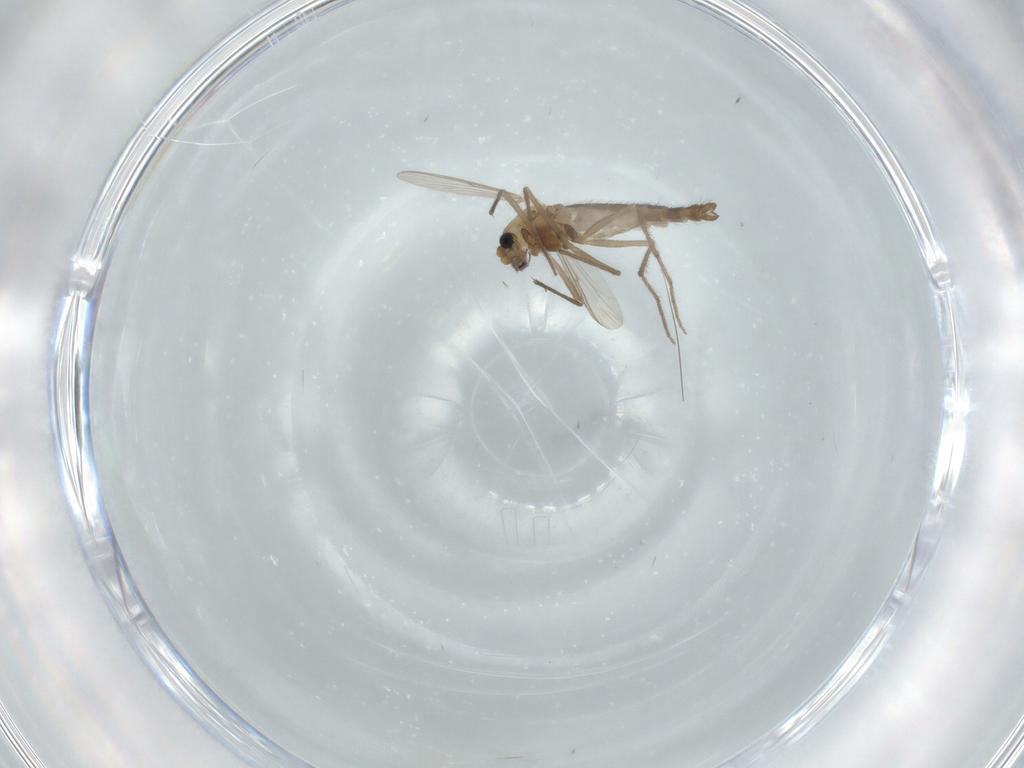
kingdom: Animalia
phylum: Arthropoda
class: Insecta
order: Diptera
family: Chironomidae
